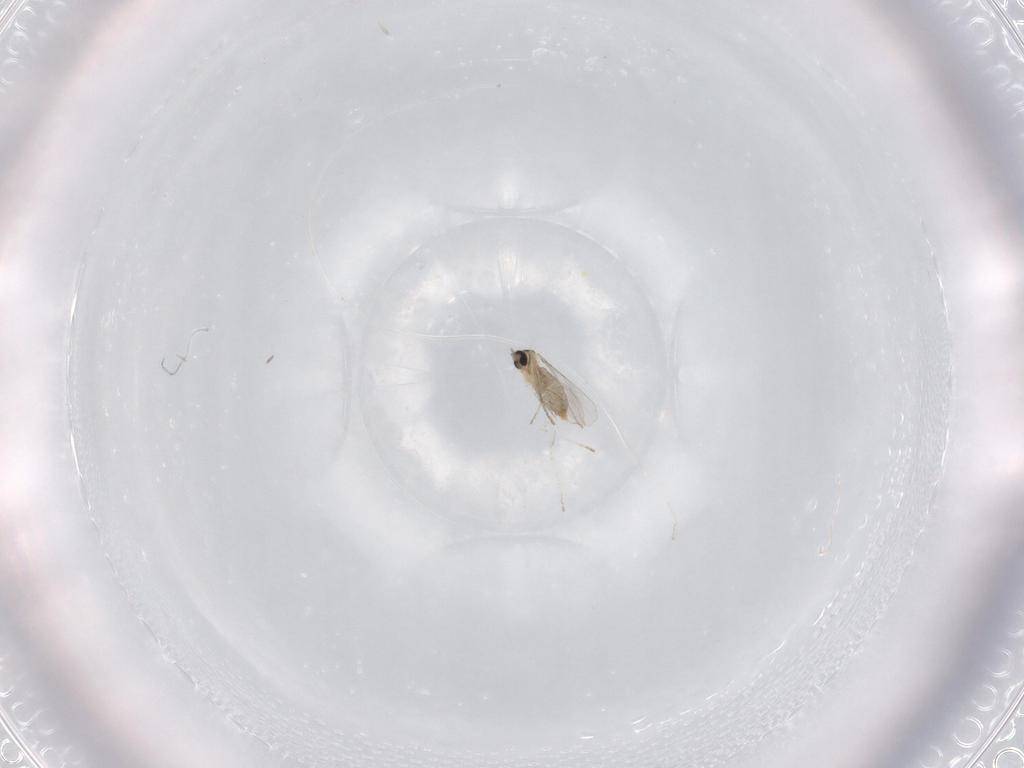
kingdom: Animalia
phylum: Arthropoda
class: Insecta
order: Diptera
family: Cecidomyiidae
